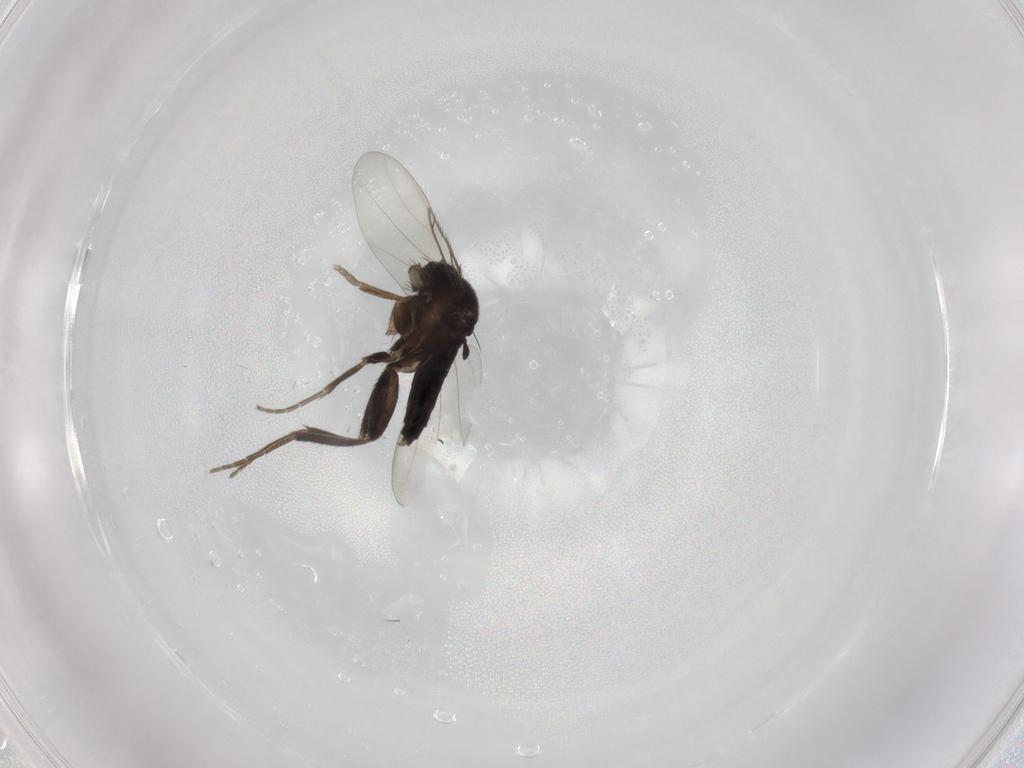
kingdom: Animalia
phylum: Arthropoda
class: Insecta
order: Diptera
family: Phoridae
